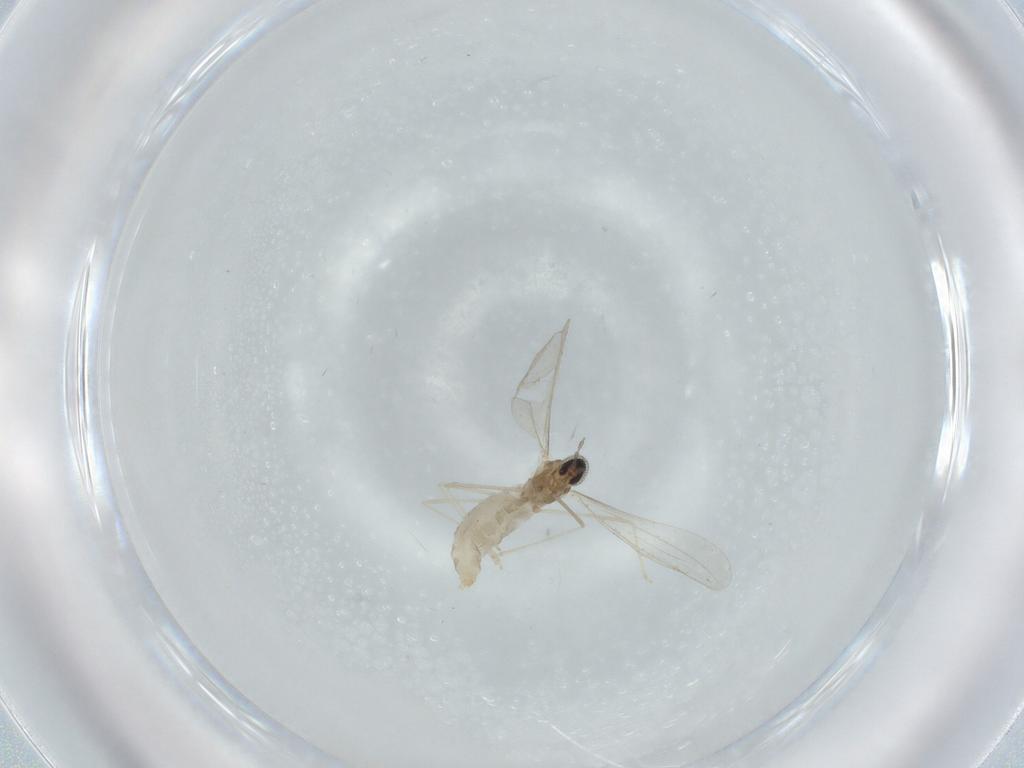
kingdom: Animalia
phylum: Arthropoda
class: Insecta
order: Diptera
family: Cecidomyiidae
